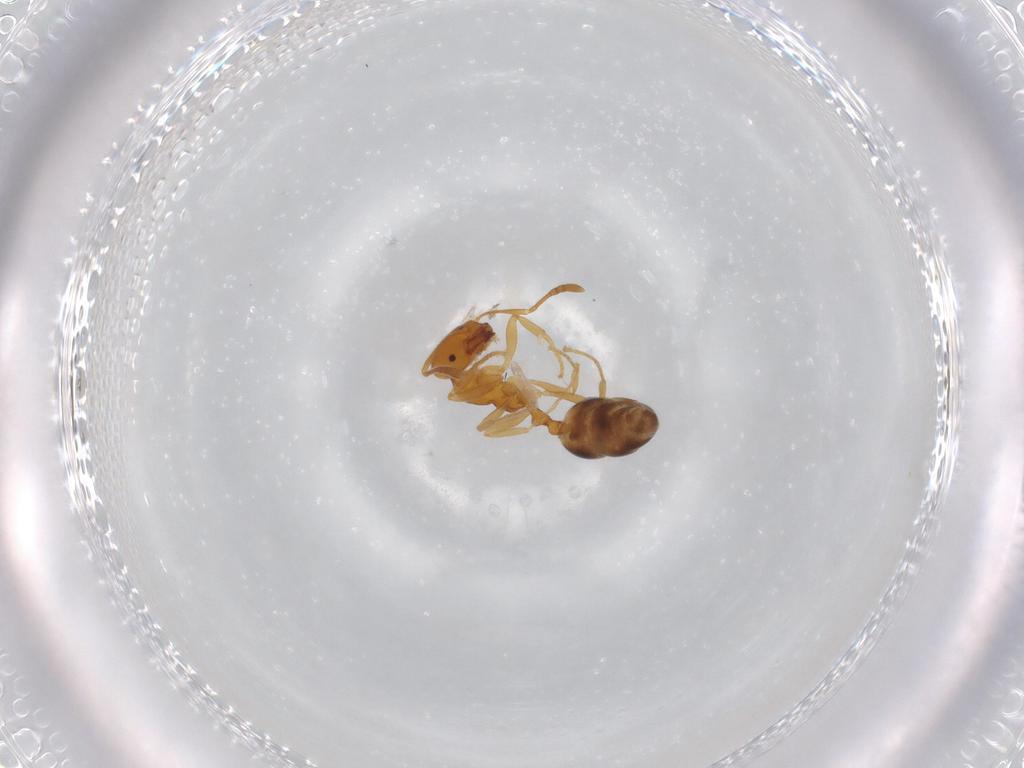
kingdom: Animalia
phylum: Arthropoda
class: Insecta
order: Hymenoptera
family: Formicidae
